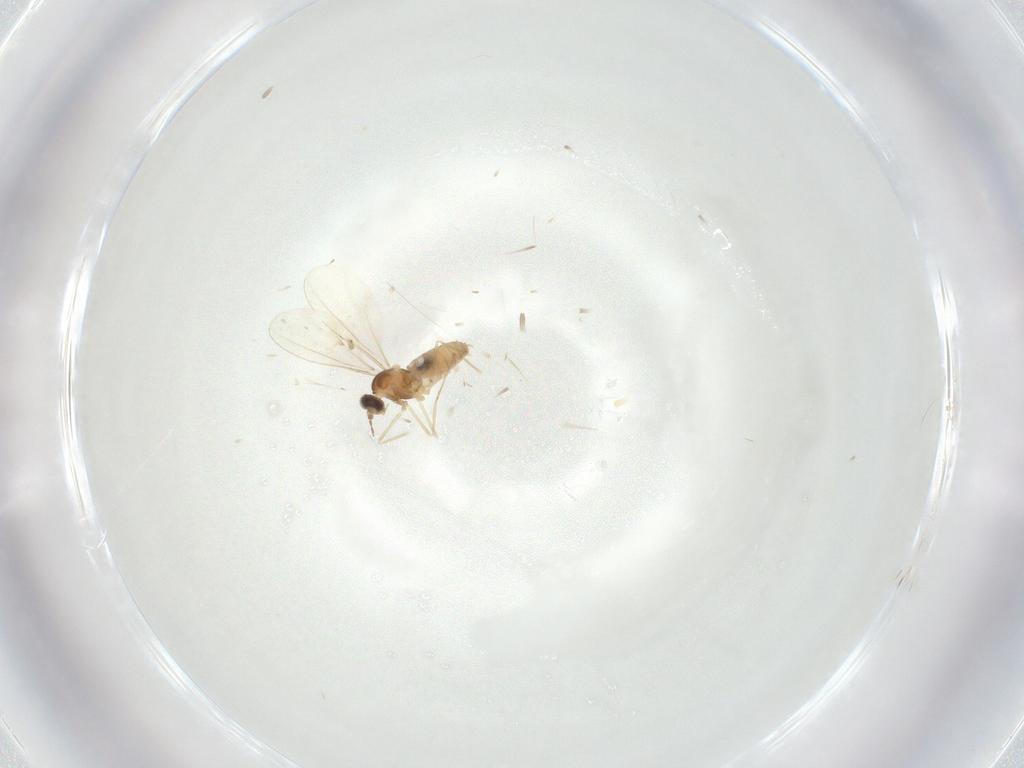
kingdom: Animalia
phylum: Arthropoda
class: Insecta
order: Diptera
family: Cecidomyiidae
